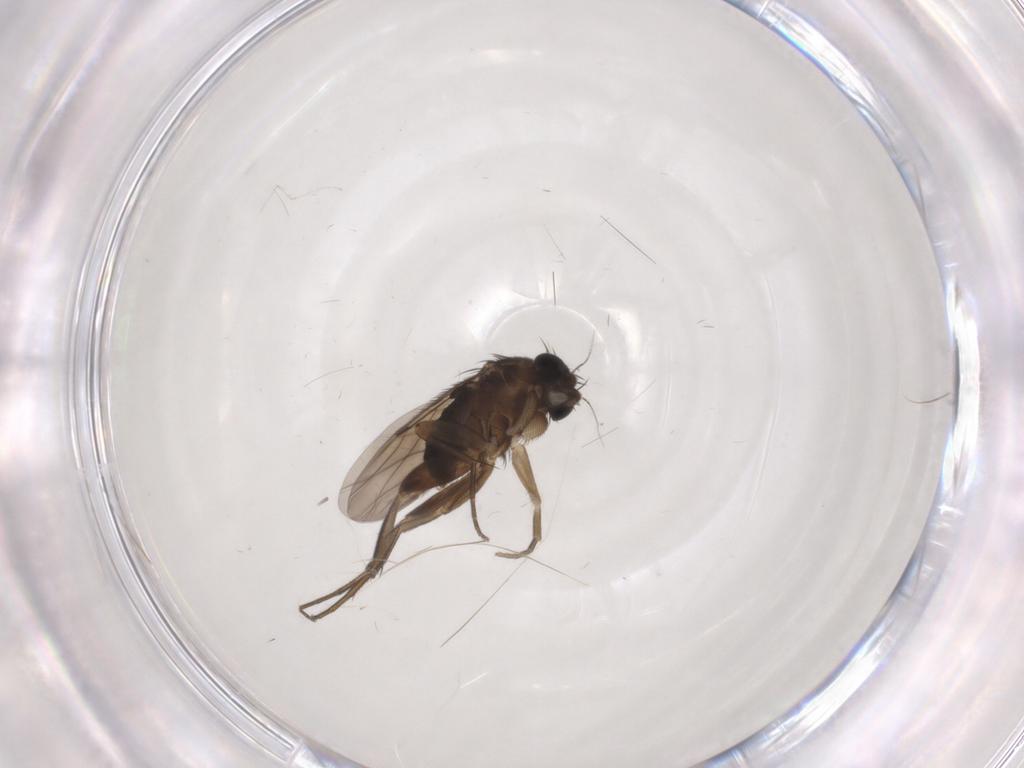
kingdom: Animalia
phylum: Arthropoda
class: Insecta
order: Diptera
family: Phoridae
